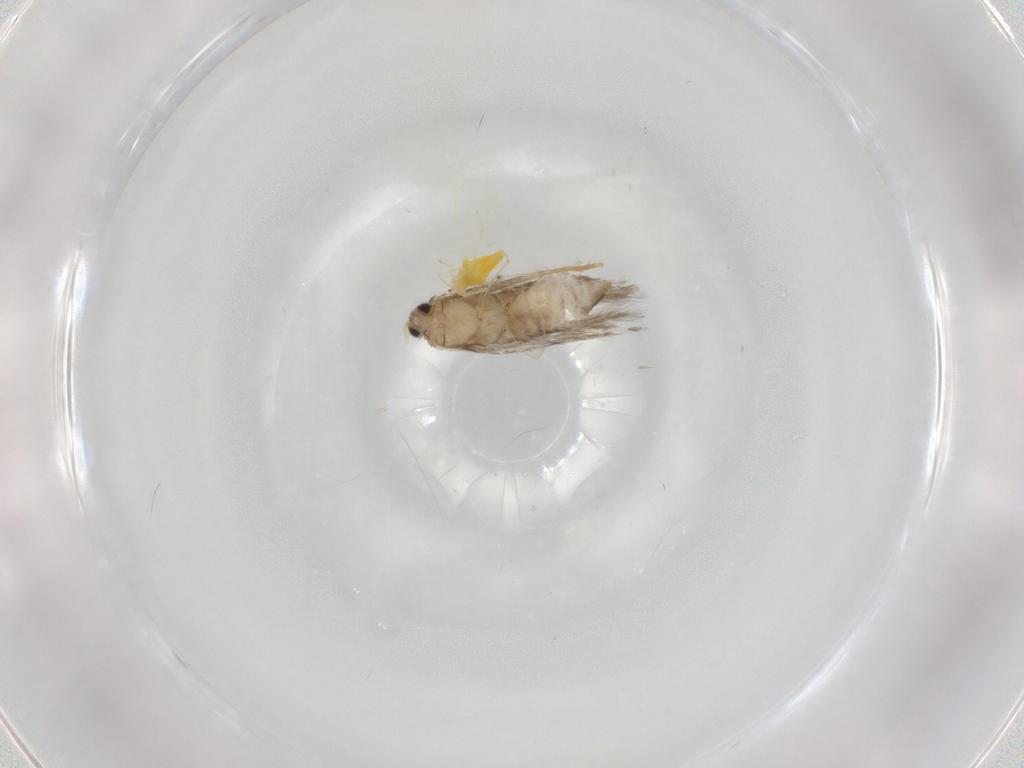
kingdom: Animalia
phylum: Arthropoda
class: Insecta
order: Lepidoptera
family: Nepticulidae
